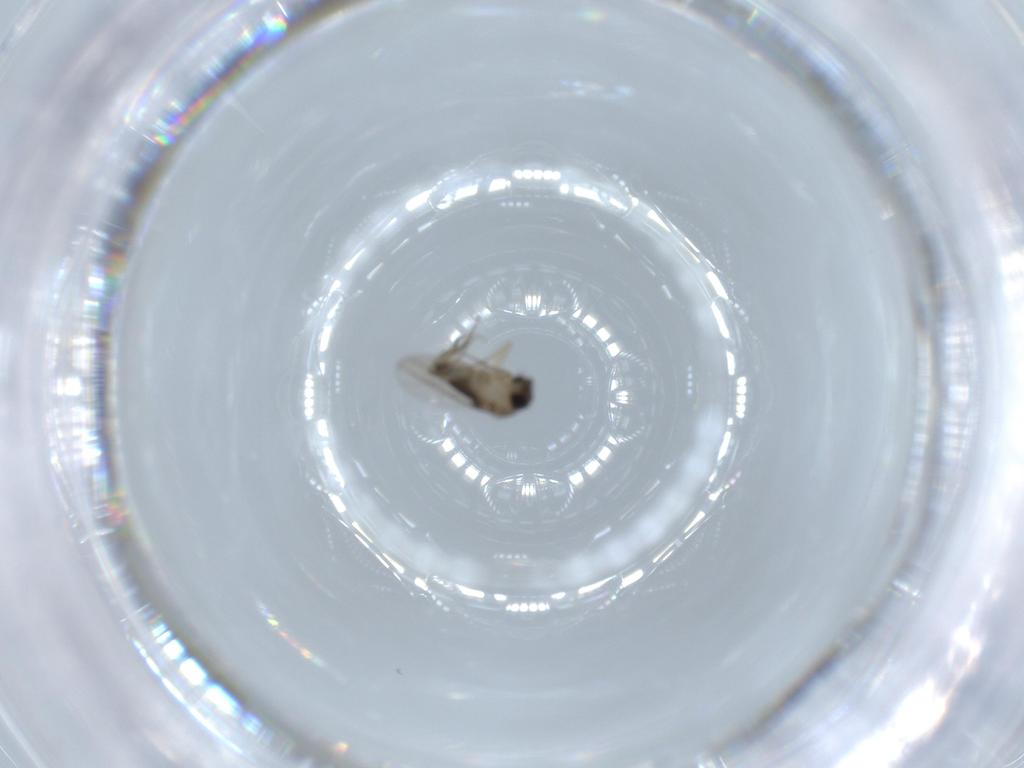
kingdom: Animalia
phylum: Arthropoda
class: Insecta
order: Diptera
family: Phoridae
